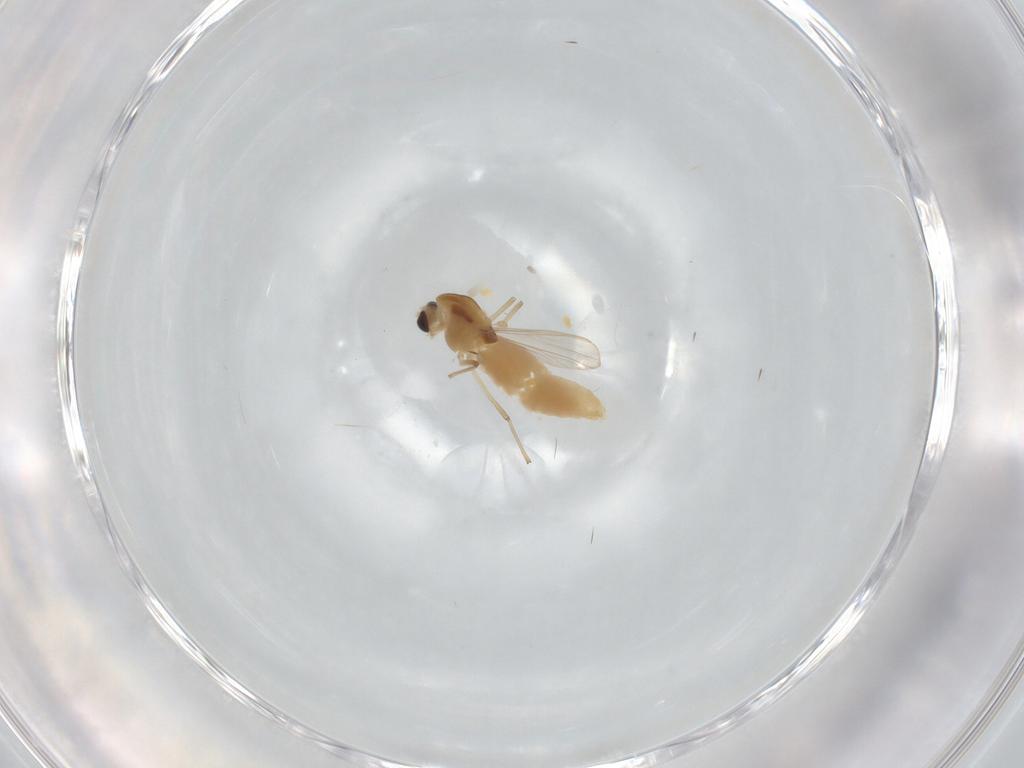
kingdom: Animalia
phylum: Arthropoda
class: Insecta
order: Diptera
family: Chironomidae
